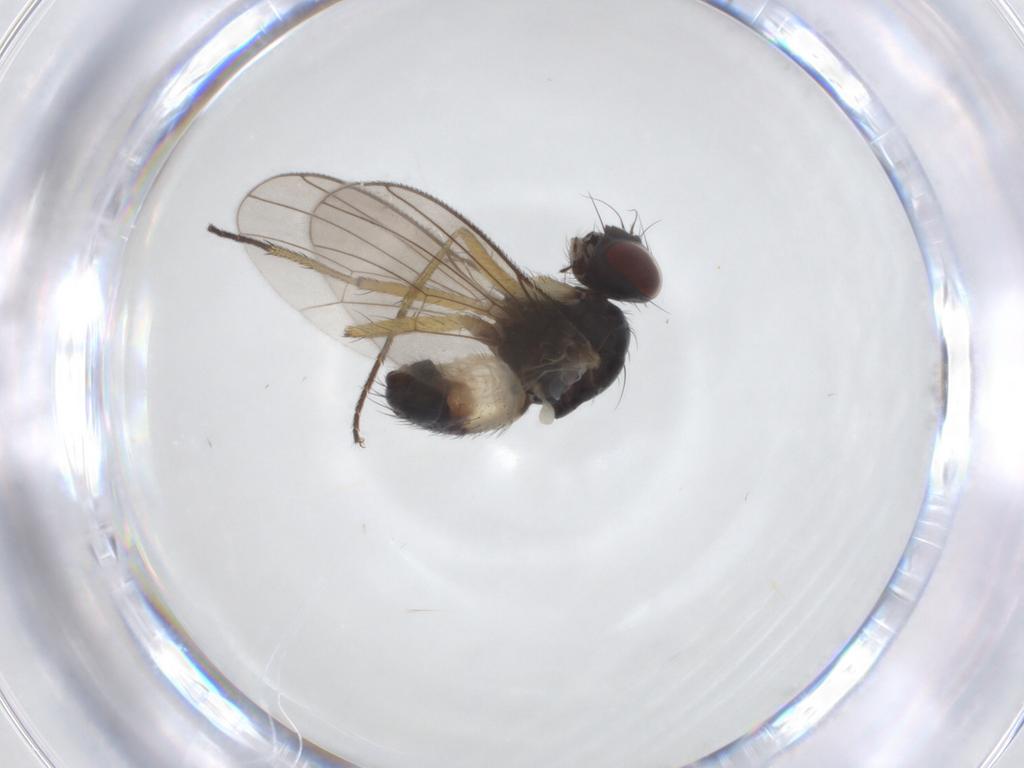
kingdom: Animalia
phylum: Arthropoda
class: Insecta
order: Diptera
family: Muscidae
